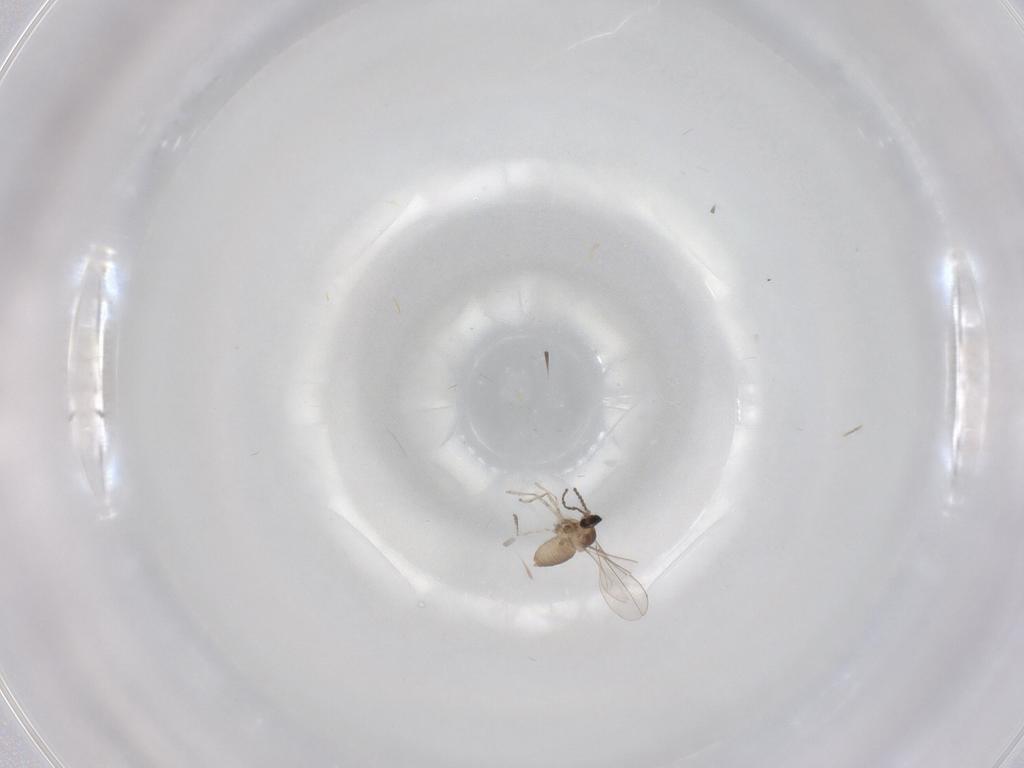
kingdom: Animalia
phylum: Arthropoda
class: Insecta
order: Diptera
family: Cecidomyiidae
